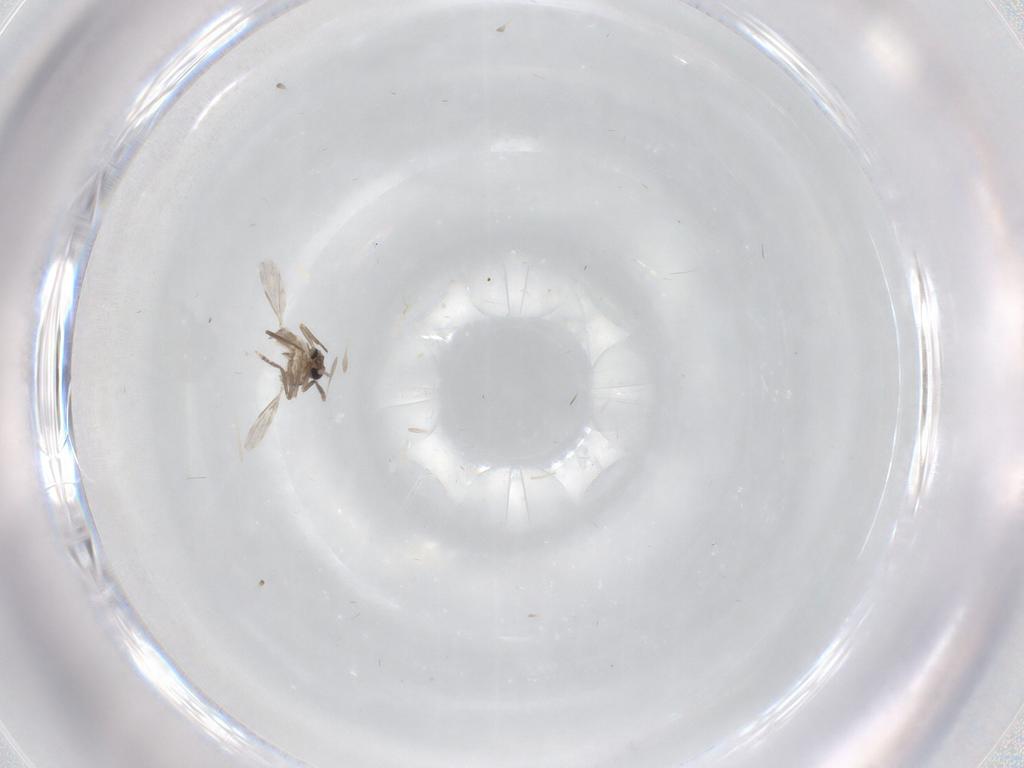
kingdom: Animalia
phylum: Arthropoda
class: Insecta
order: Diptera
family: Ceratopogonidae
